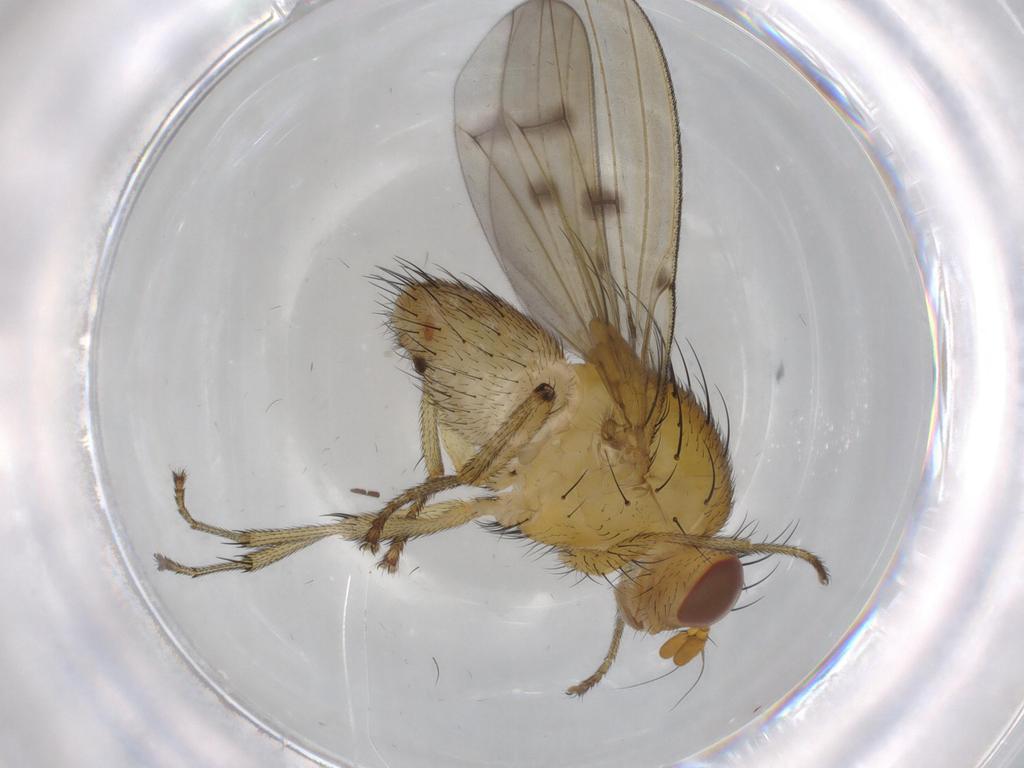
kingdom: Animalia
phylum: Arthropoda
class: Insecta
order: Diptera
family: Sciaridae
